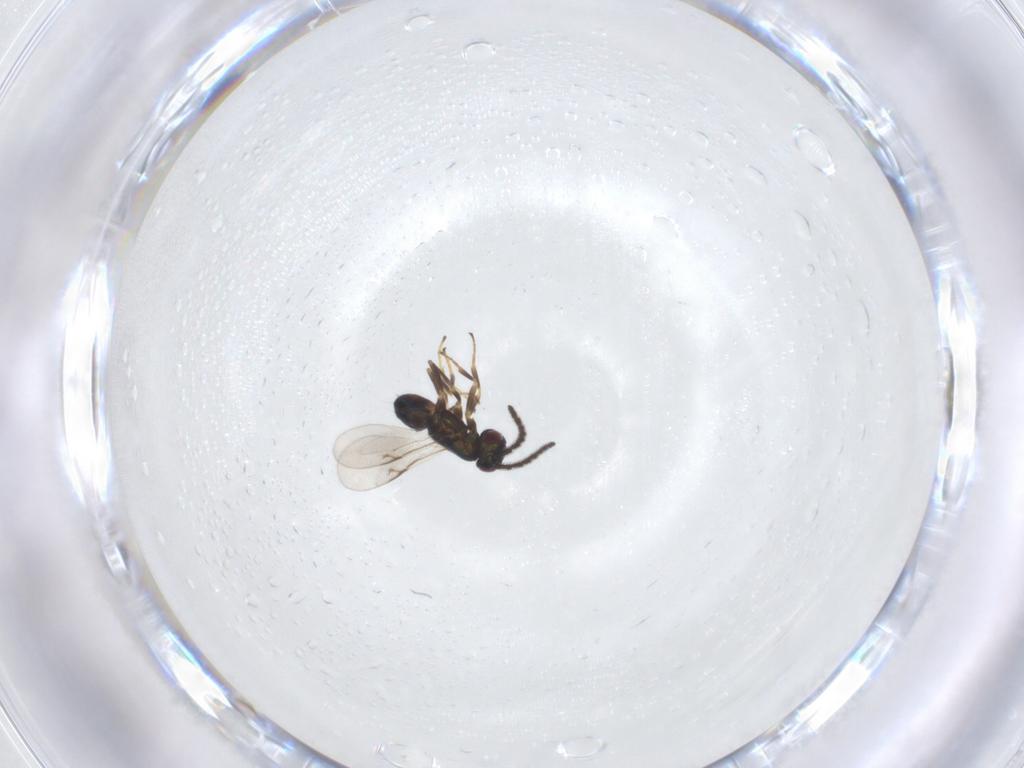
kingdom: Animalia
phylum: Arthropoda
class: Insecta
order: Hymenoptera
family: Encyrtidae
